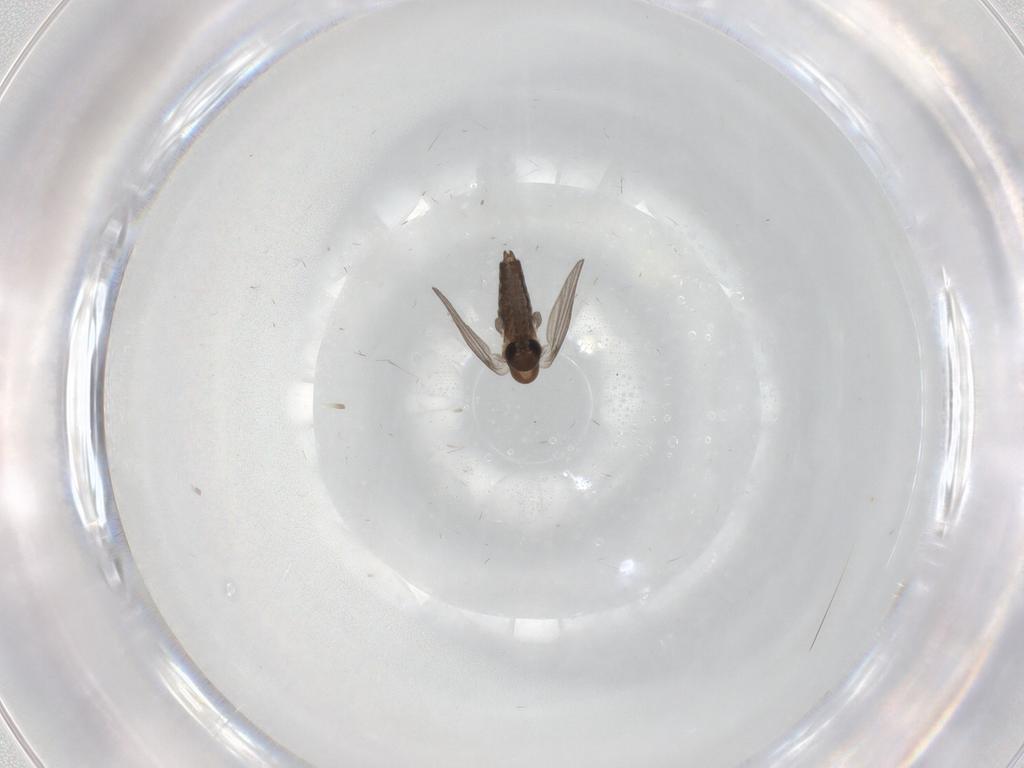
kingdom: Animalia
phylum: Arthropoda
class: Insecta
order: Diptera
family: Phoridae
